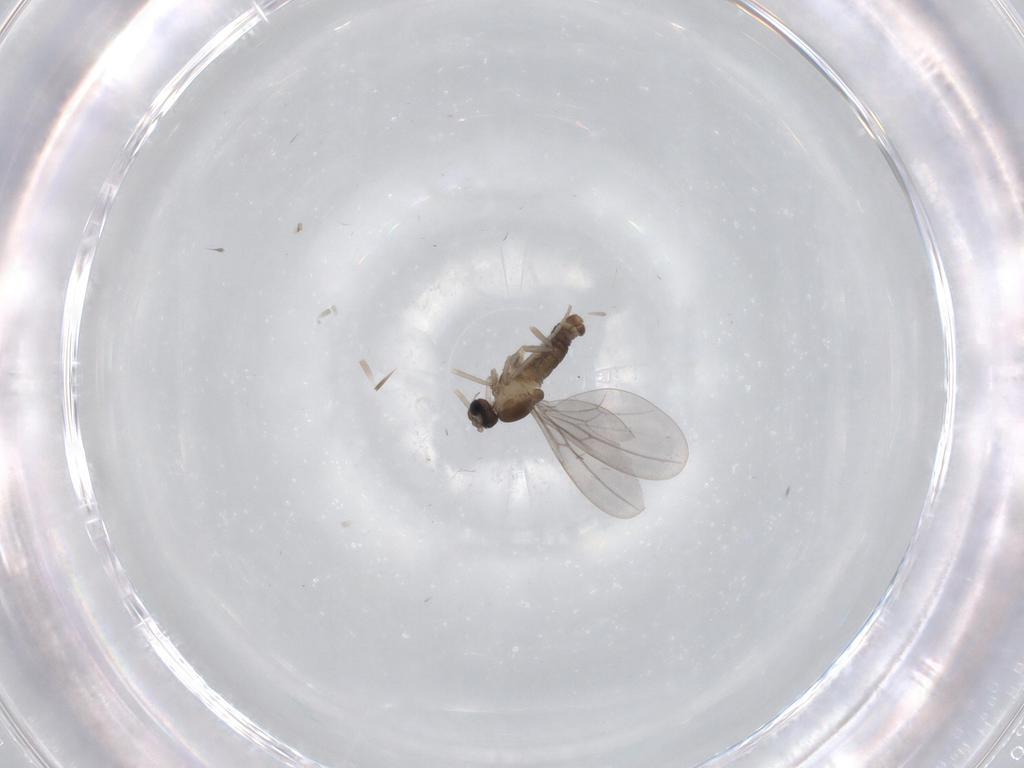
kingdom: Animalia
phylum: Arthropoda
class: Insecta
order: Diptera
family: Cecidomyiidae
